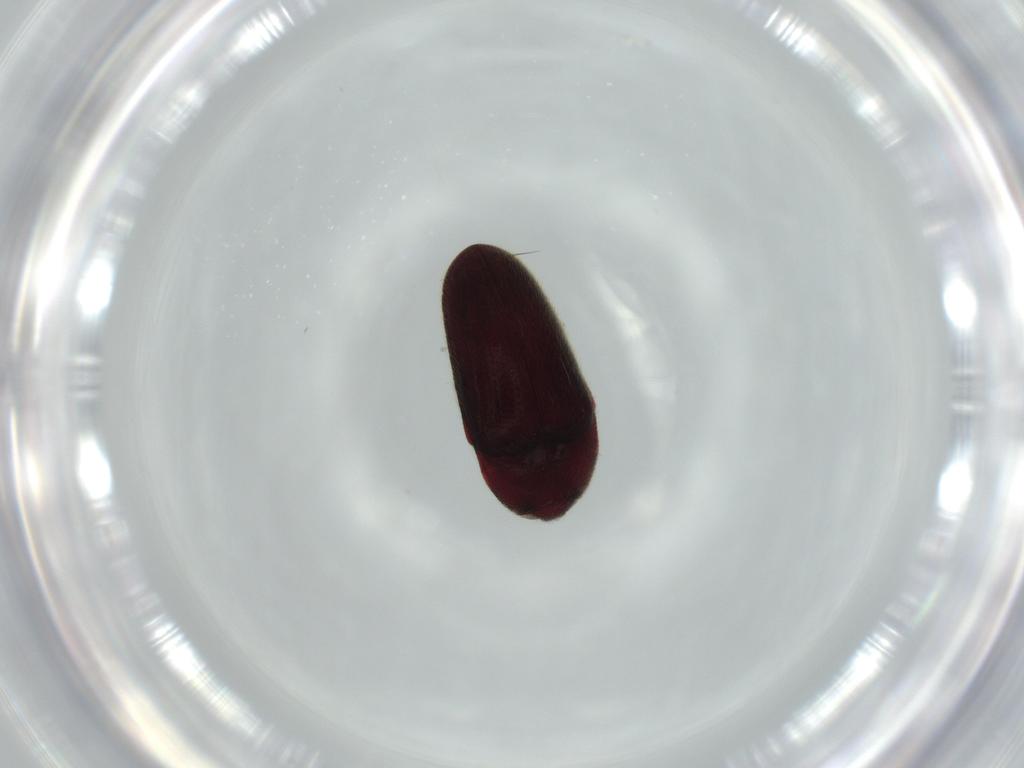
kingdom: Animalia
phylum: Arthropoda
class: Insecta
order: Coleoptera
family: Throscidae
